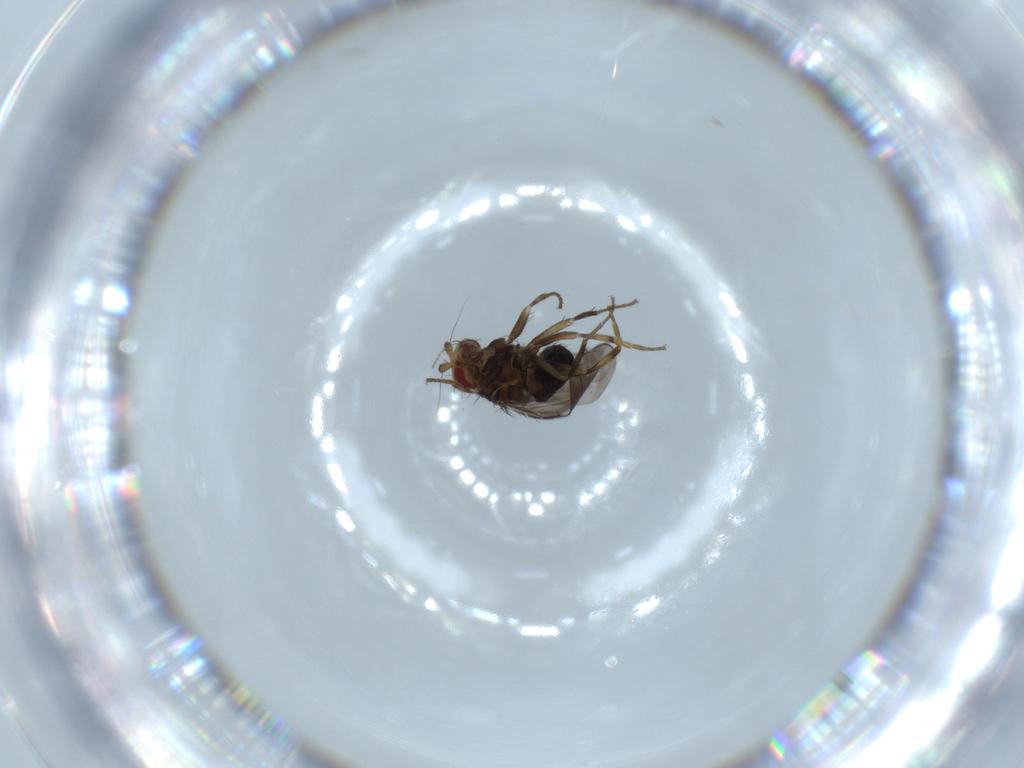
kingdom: Animalia
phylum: Arthropoda
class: Insecta
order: Diptera
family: Sphaeroceridae
